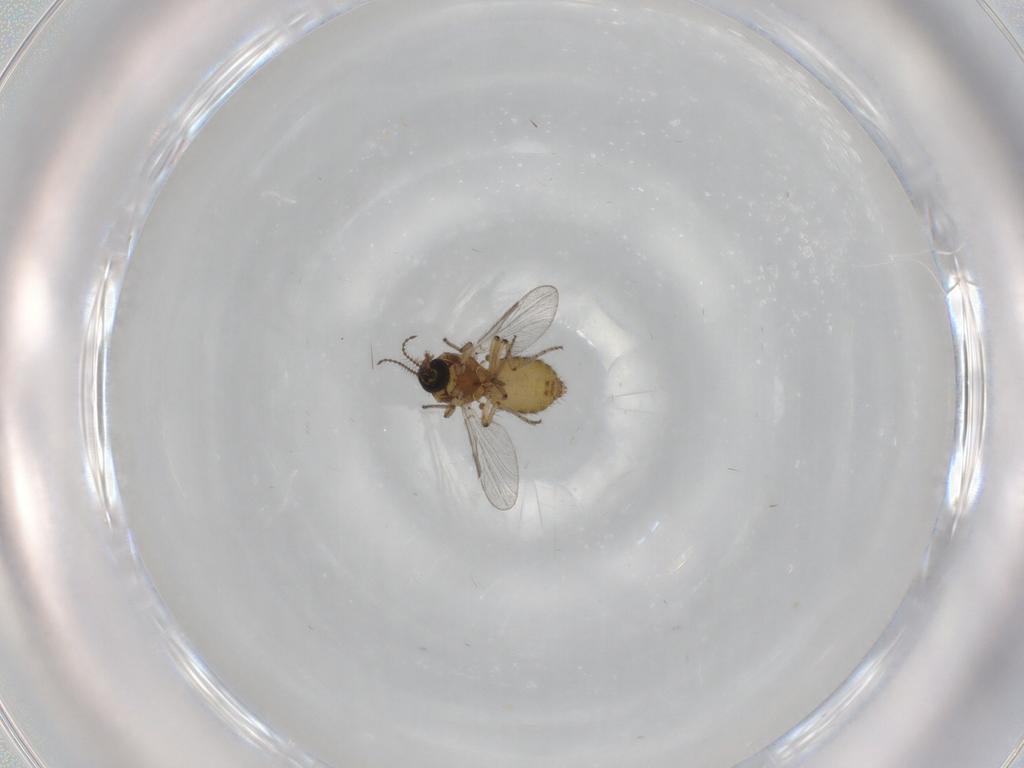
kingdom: Animalia
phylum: Arthropoda
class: Insecta
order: Diptera
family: Ceratopogonidae
